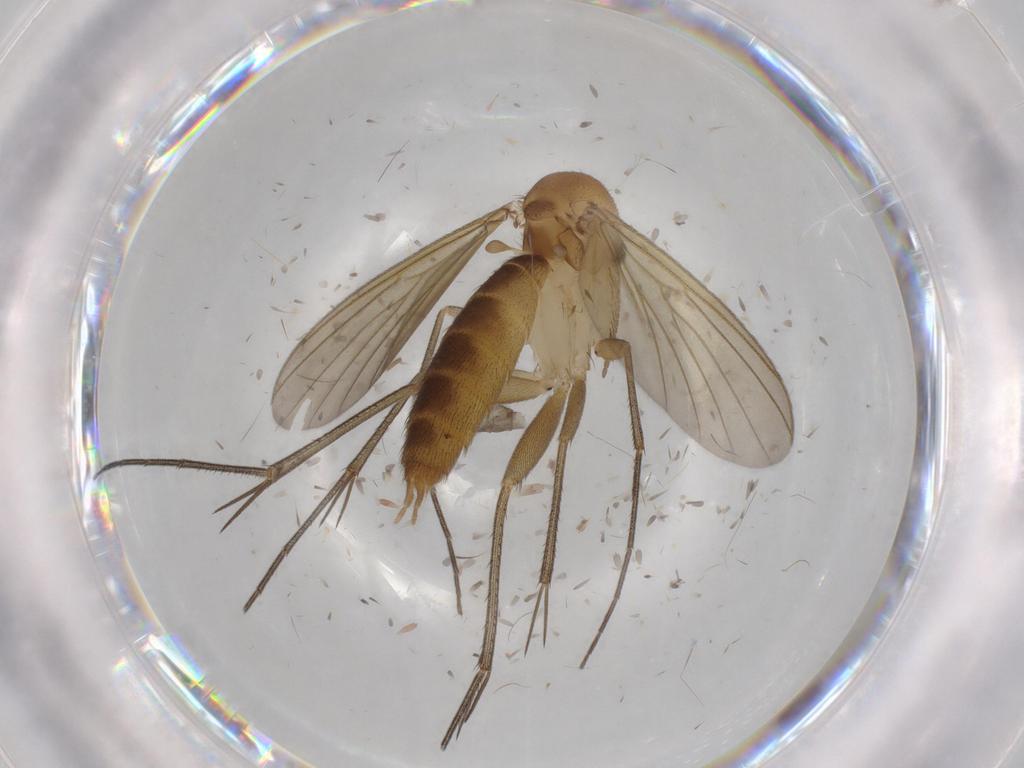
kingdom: Animalia
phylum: Arthropoda
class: Insecta
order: Diptera
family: Mycetophilidae
